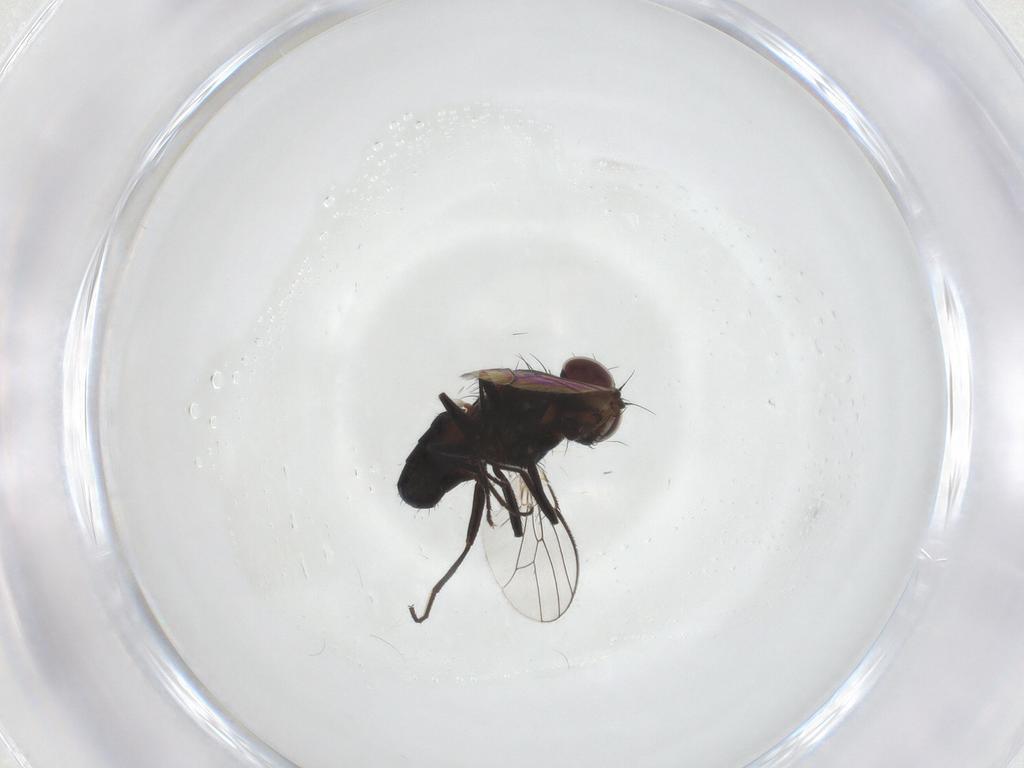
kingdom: Animalia
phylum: Arthropoda
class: Insecta
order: Diptera
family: Carnidae
